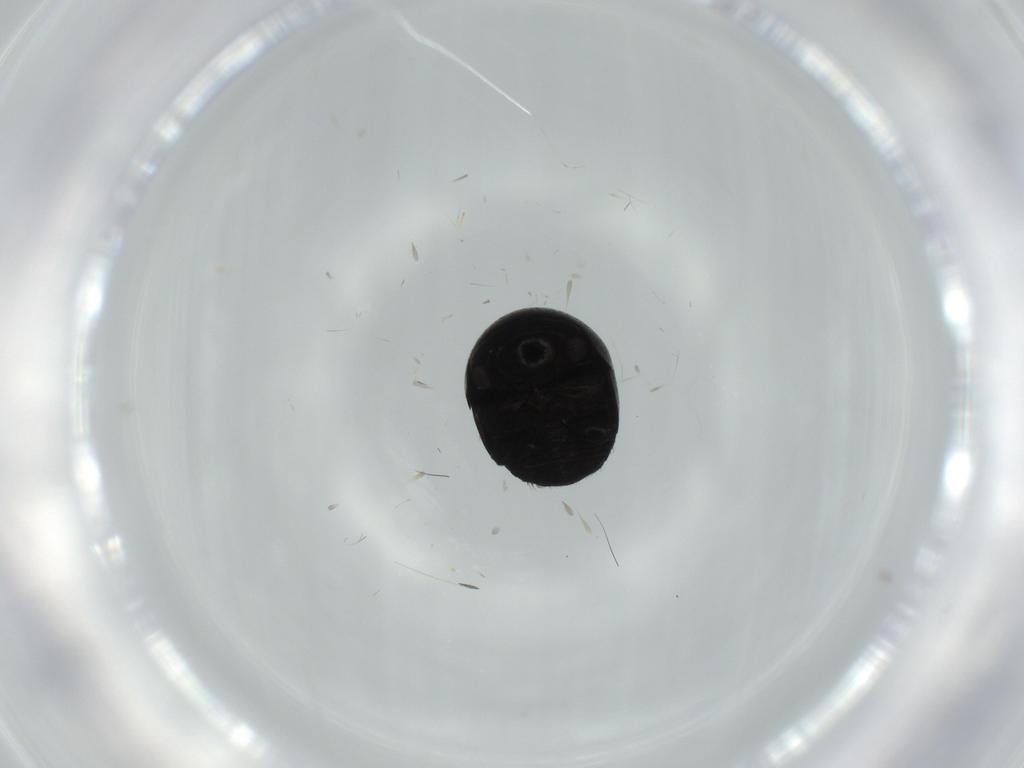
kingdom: Animalia
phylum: Arthropoda
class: Insecta
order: Coleoptera
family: Cybocephalidae
